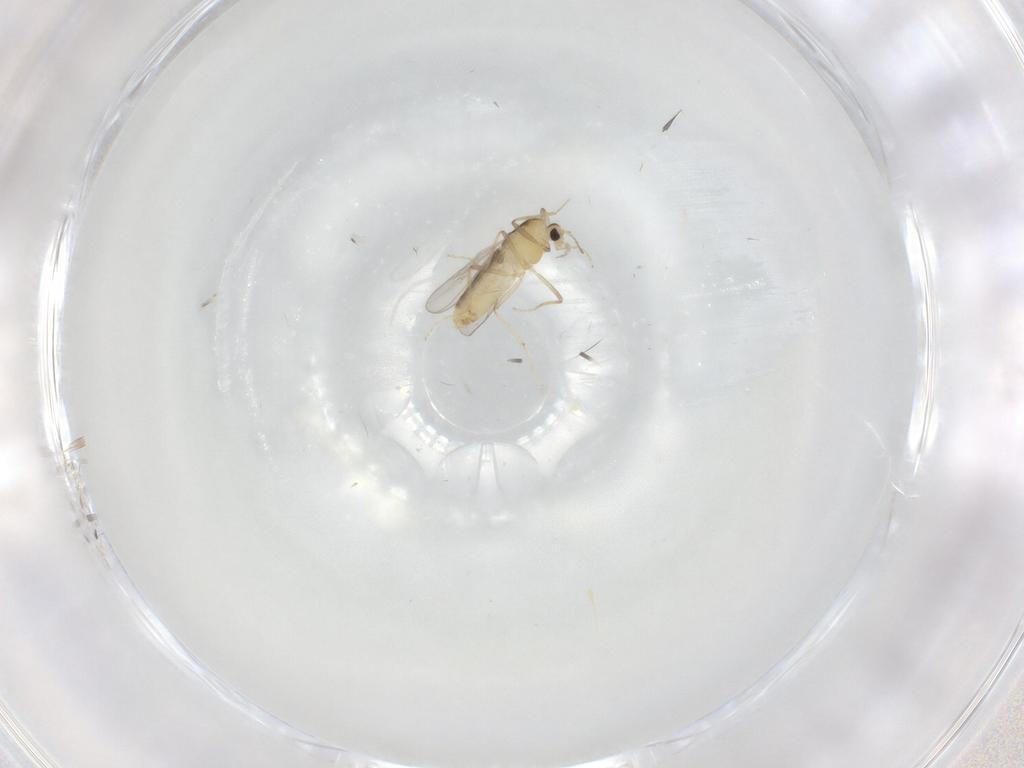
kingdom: Animalia
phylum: Arthropoda
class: Insecta
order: Diptera
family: Chironomidae
